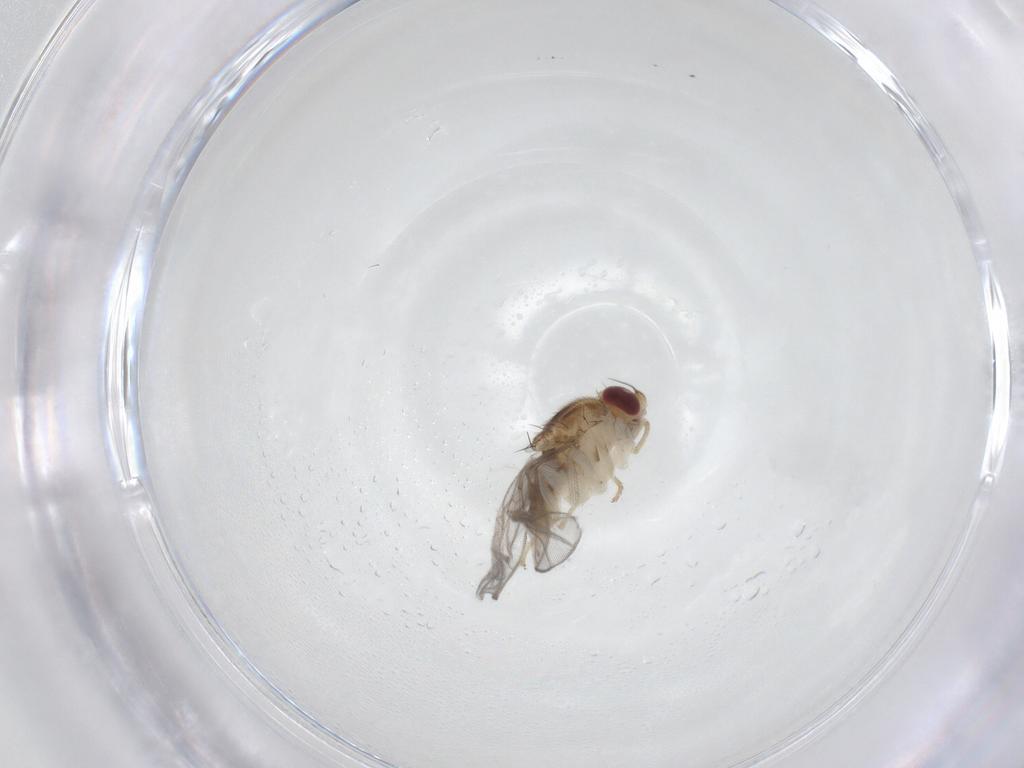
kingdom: Animalia
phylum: Arthropoda
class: Insecta
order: Diptera
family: Chloropidae
